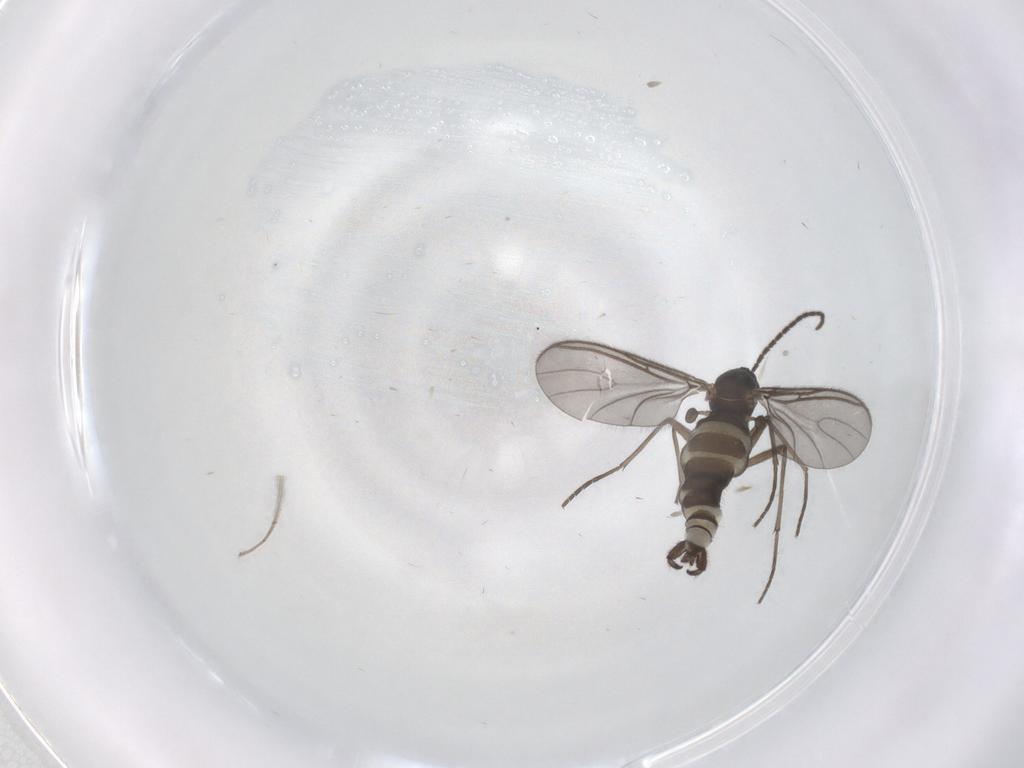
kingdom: Animalia
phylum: Arthropoda
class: Insecta
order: Diptera
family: Sciaridae
